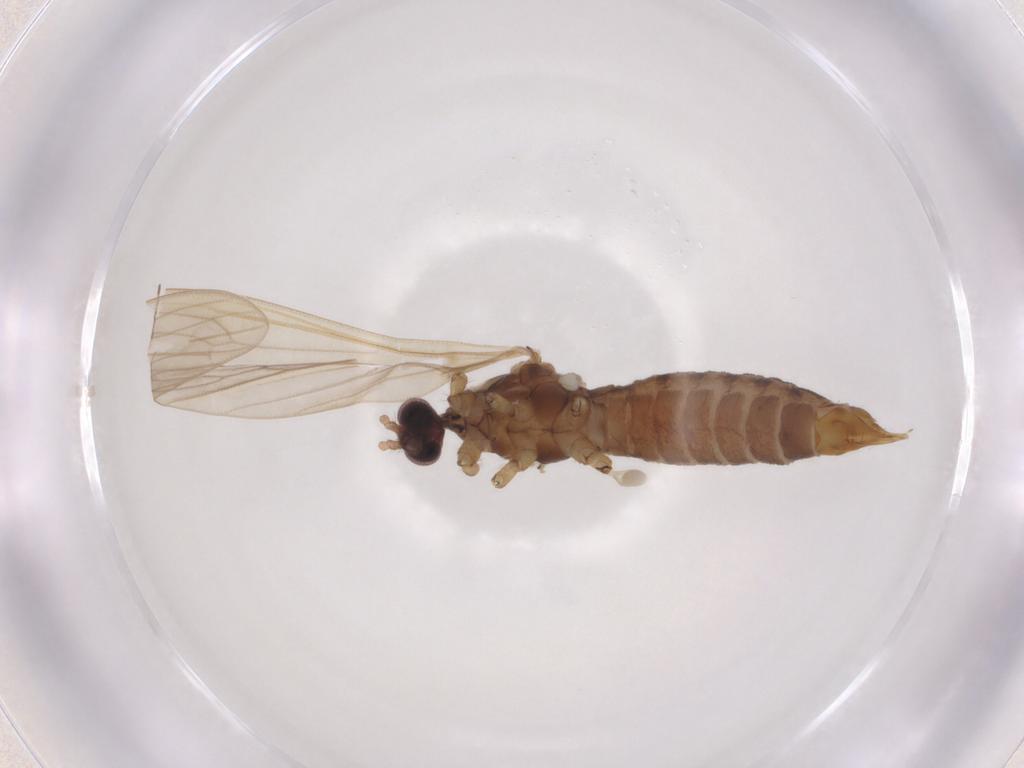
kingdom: Animalia
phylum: Arthropoda
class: Insecta
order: Diptera
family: Limoniidae
